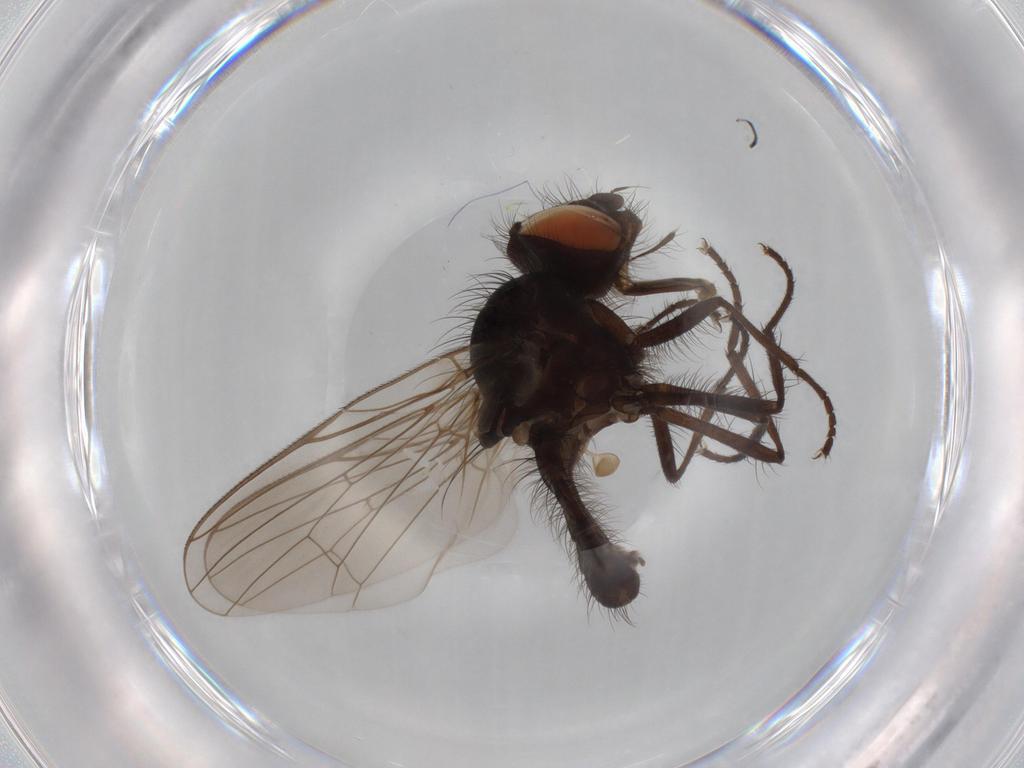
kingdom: Animalia
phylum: Arthropoda
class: Insecta
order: Diptera
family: Anthomyiidae
